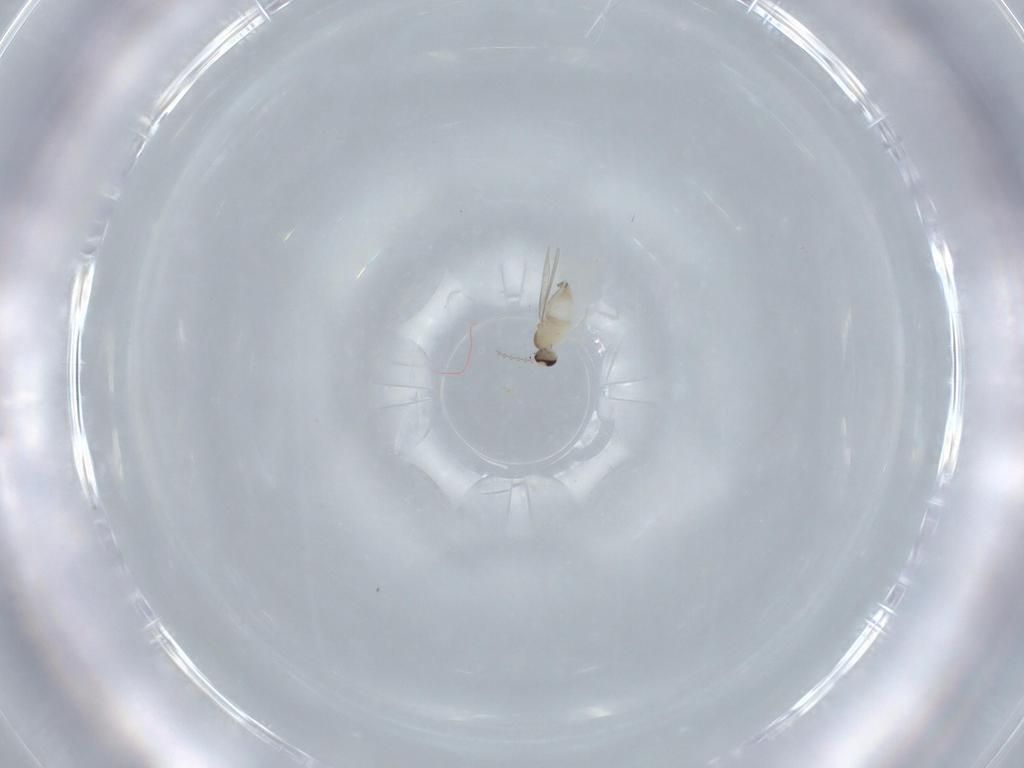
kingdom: Animalia
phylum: Arthropoda
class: Insecta
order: Diptera
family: Cecidomyiidae
